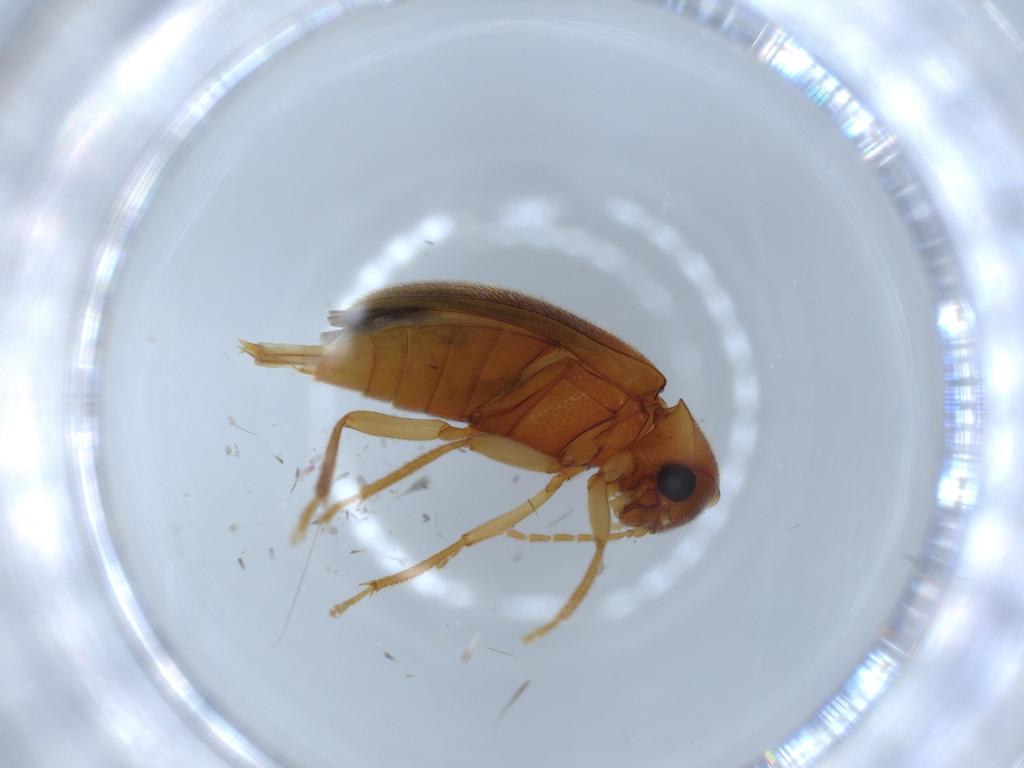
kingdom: Animalia
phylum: Arthropoda
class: Insecta
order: Coleoptera
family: Ptilodactylidae
